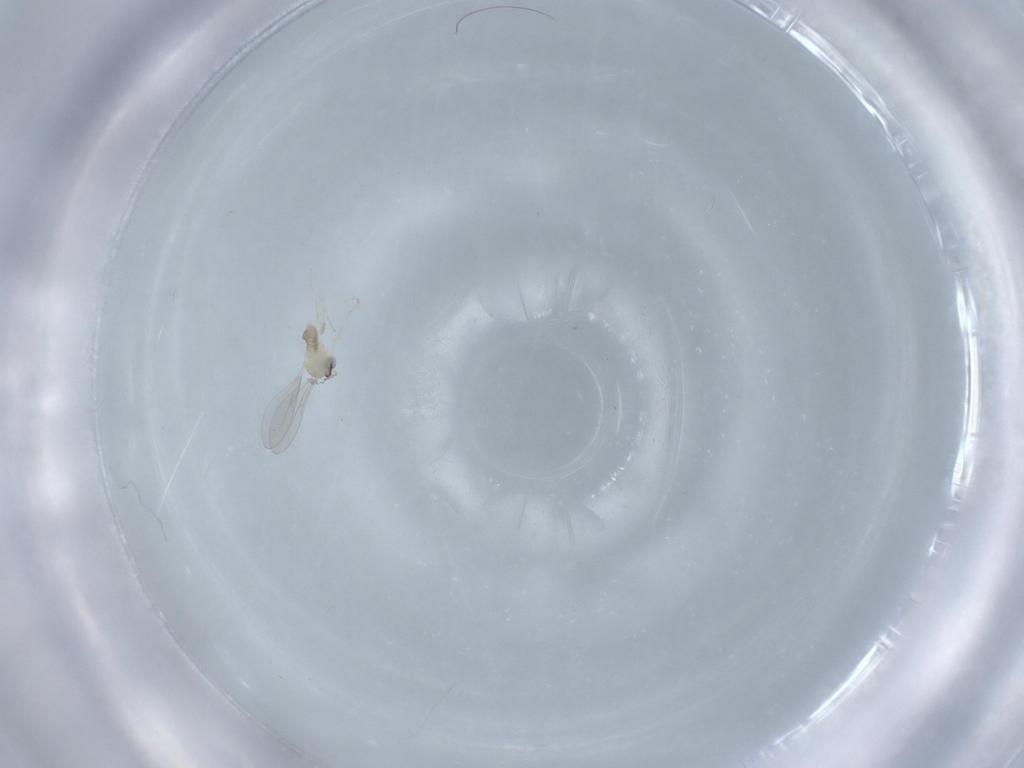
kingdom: Animalia
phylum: Arthropoda
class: Insecta
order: Diptera
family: Cecidomyiidae
